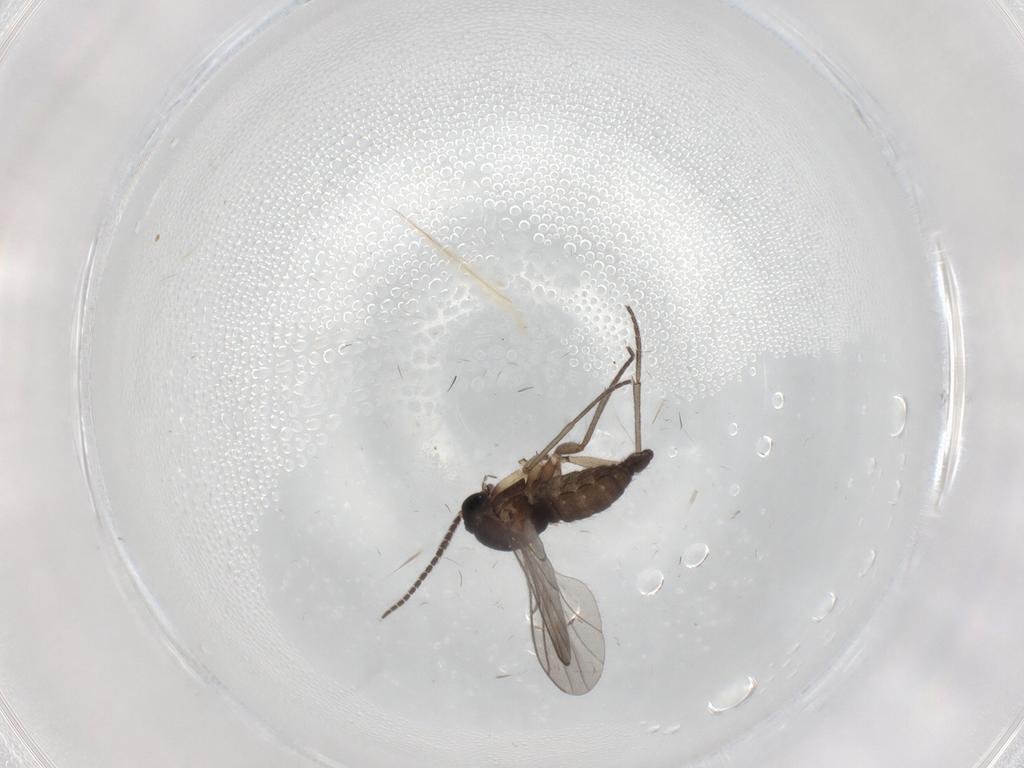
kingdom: Animalia
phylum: Arthropoda
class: Insecta
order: Diptera
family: Sciaridae
